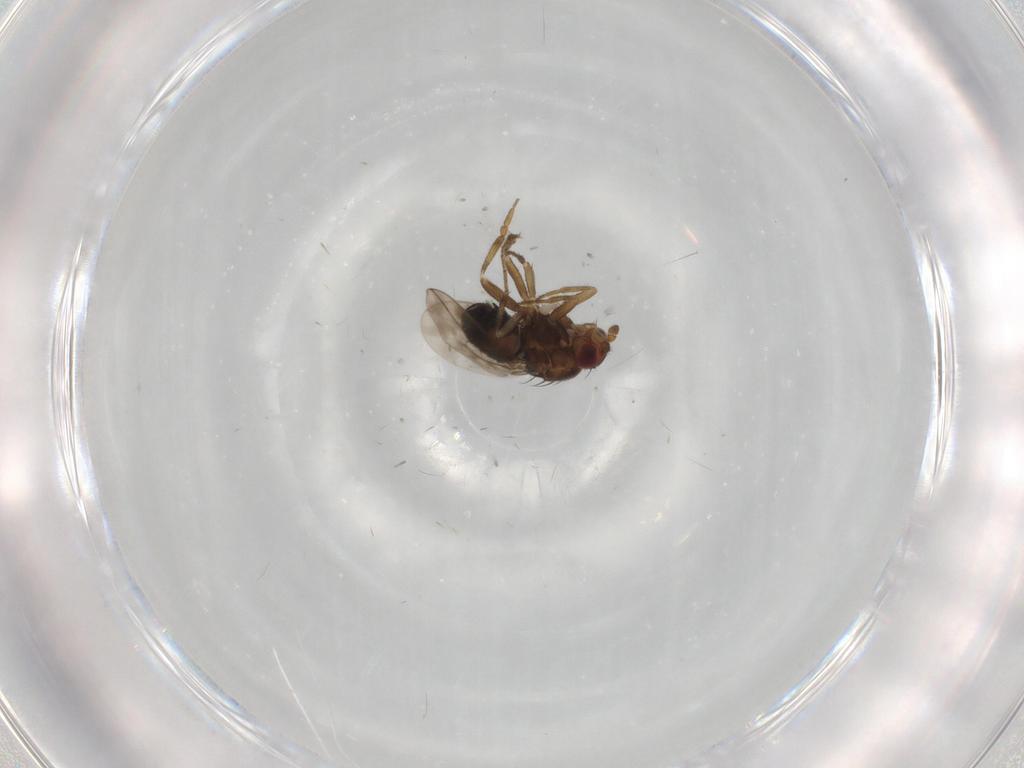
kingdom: Animalia
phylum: Arthropoda
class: Insecta
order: Diptera
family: Sphaeroceridae
